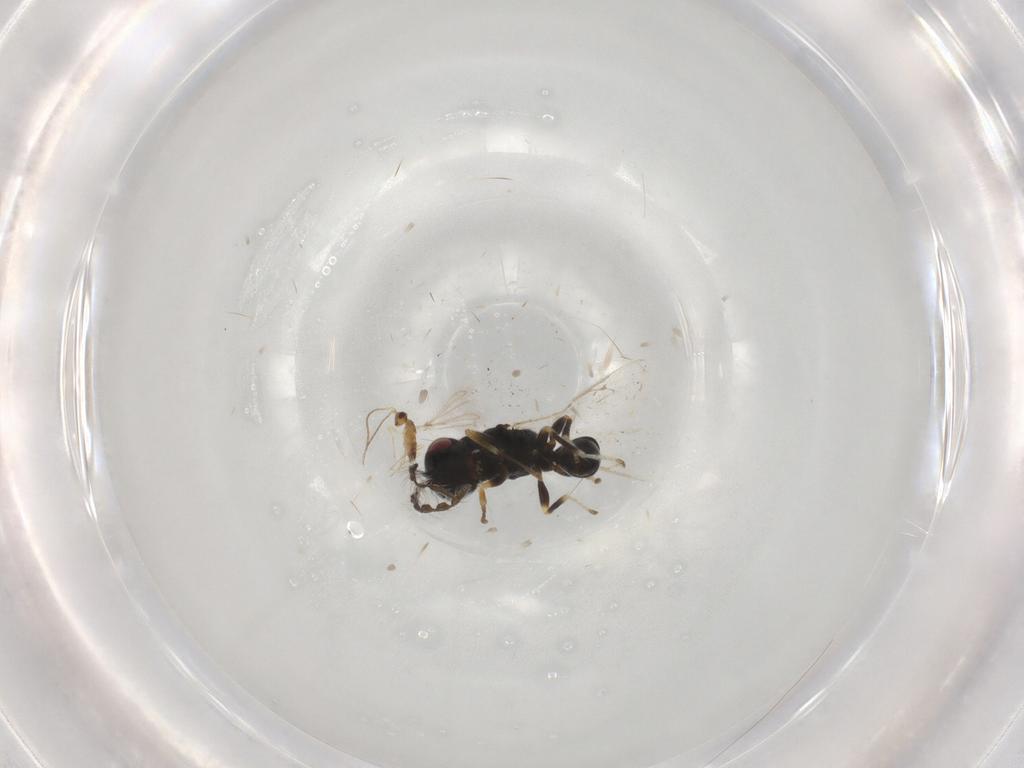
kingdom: Animalia
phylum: Arthropoda
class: Insecta
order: Hymenoptera
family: Eurytomidae
